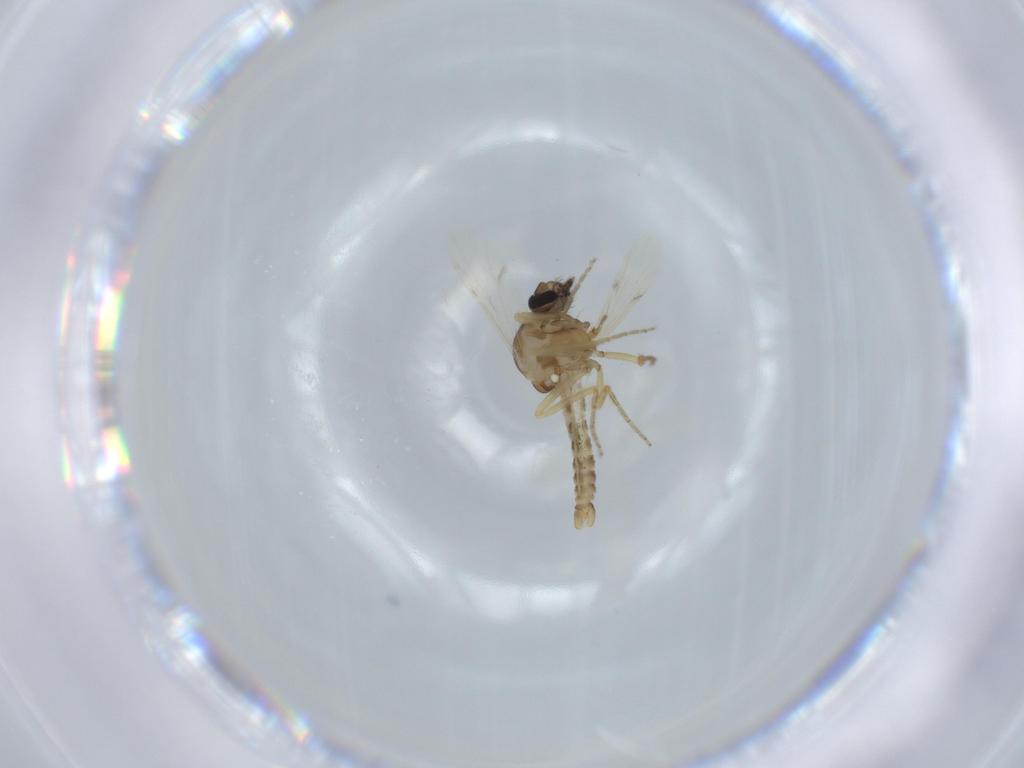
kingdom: Animalia
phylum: Arthropoda
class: Insecta
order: Diptera
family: Ceratopogonidae
